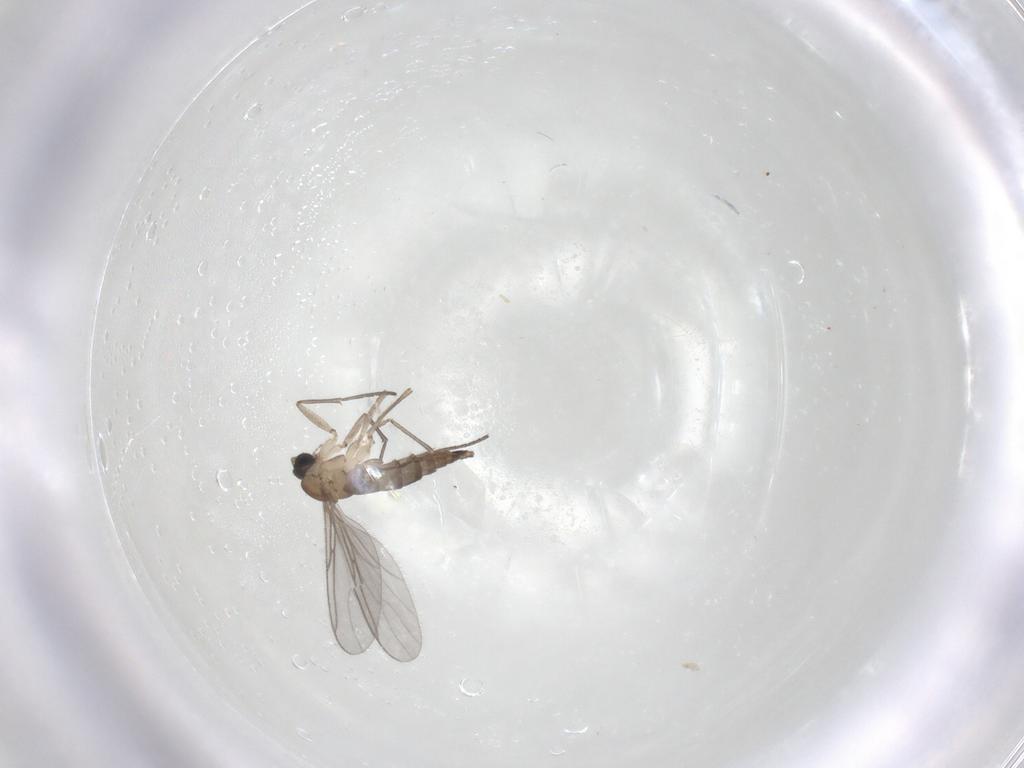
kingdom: Animalia
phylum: Arthropoda
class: Insecta
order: Diptera
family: Sciaridae
